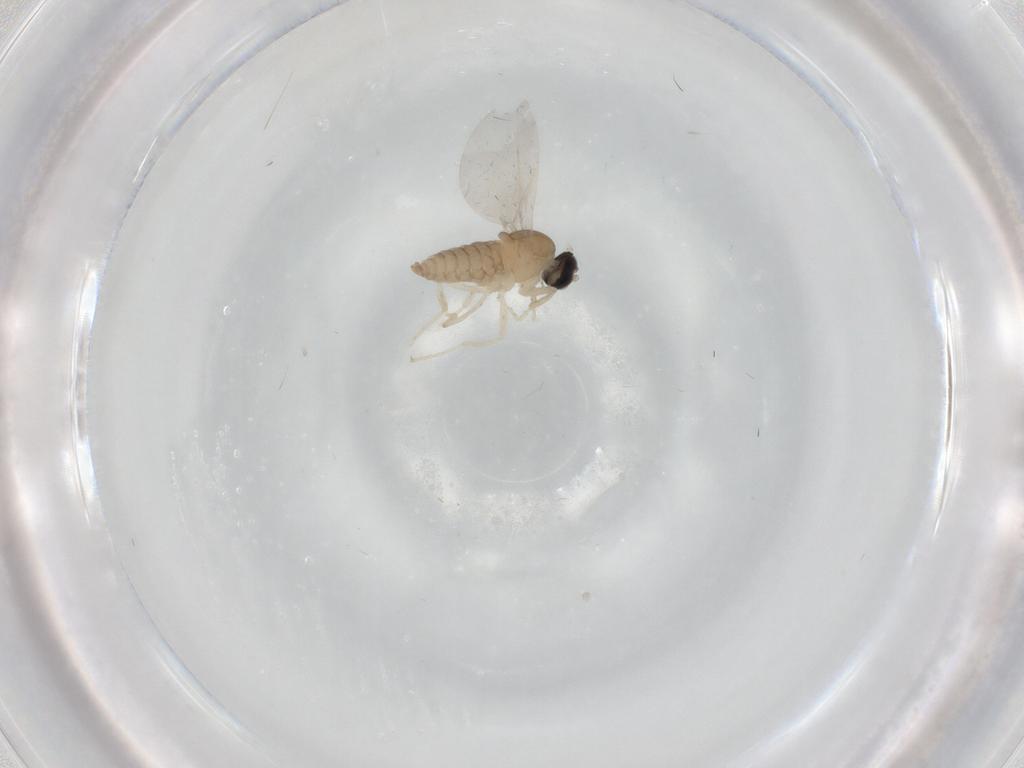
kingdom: Animalia
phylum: Arthropoda
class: Insecta
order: Diptera
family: Cecidomyiidae
